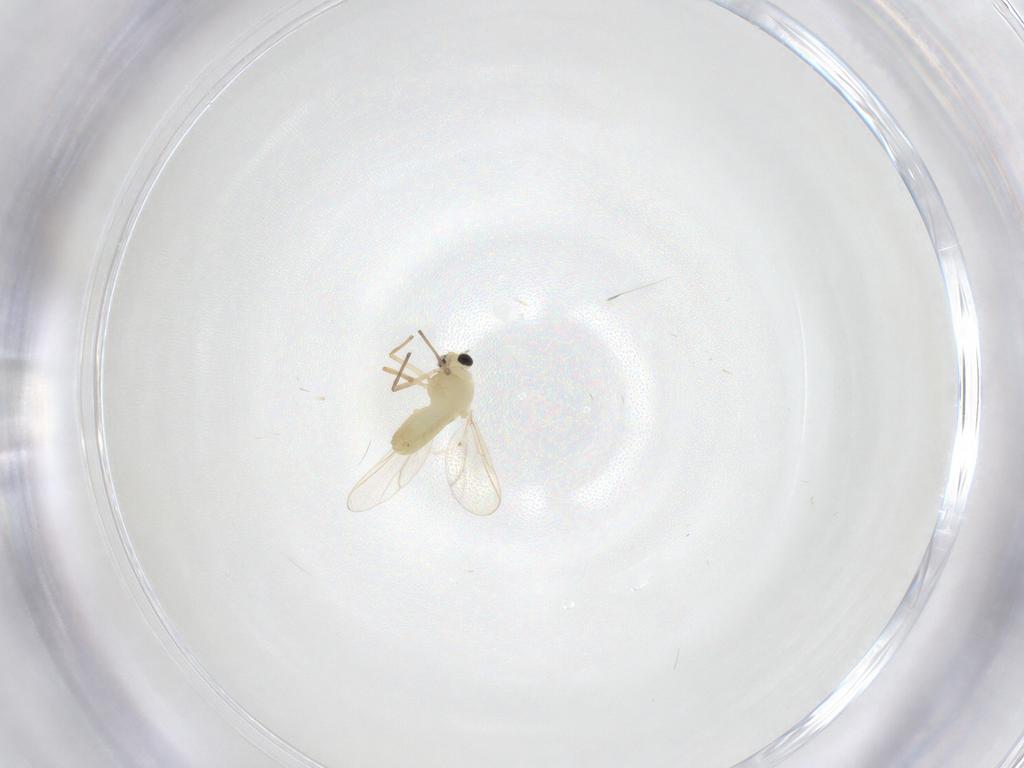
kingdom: Animalia
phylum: Arthropoda
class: Insecta
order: Diptera
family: Chironomidae
